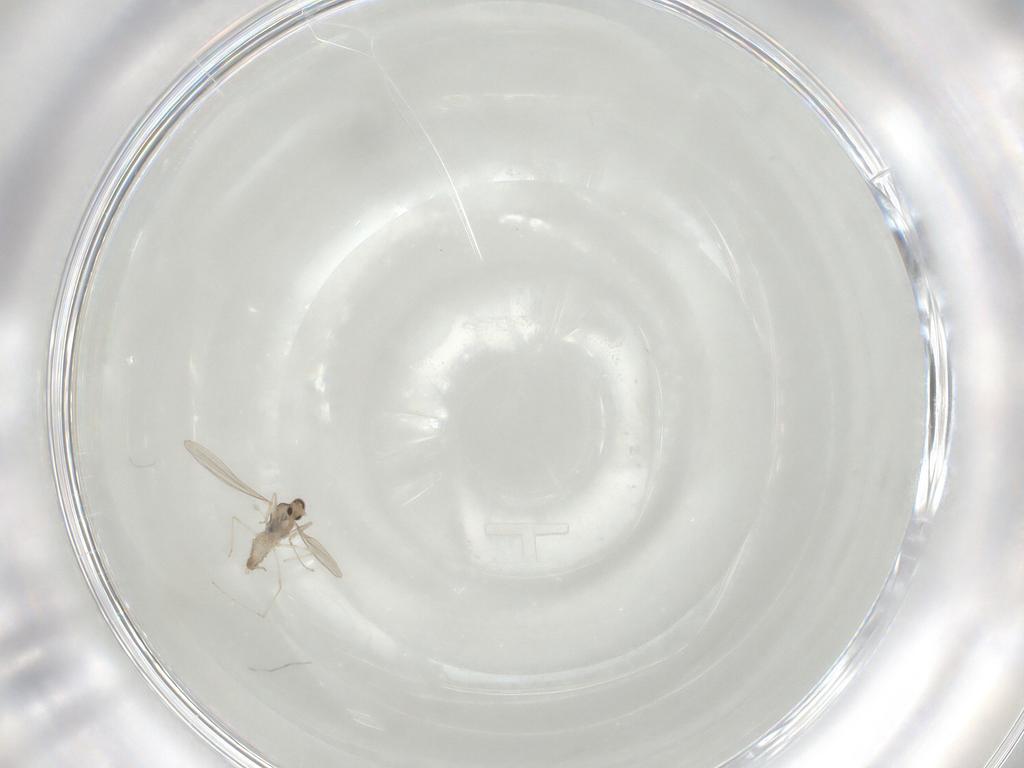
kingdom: Animalia
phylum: Arthropoda
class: Insecta
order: Diptera
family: Cecidomyiidae
